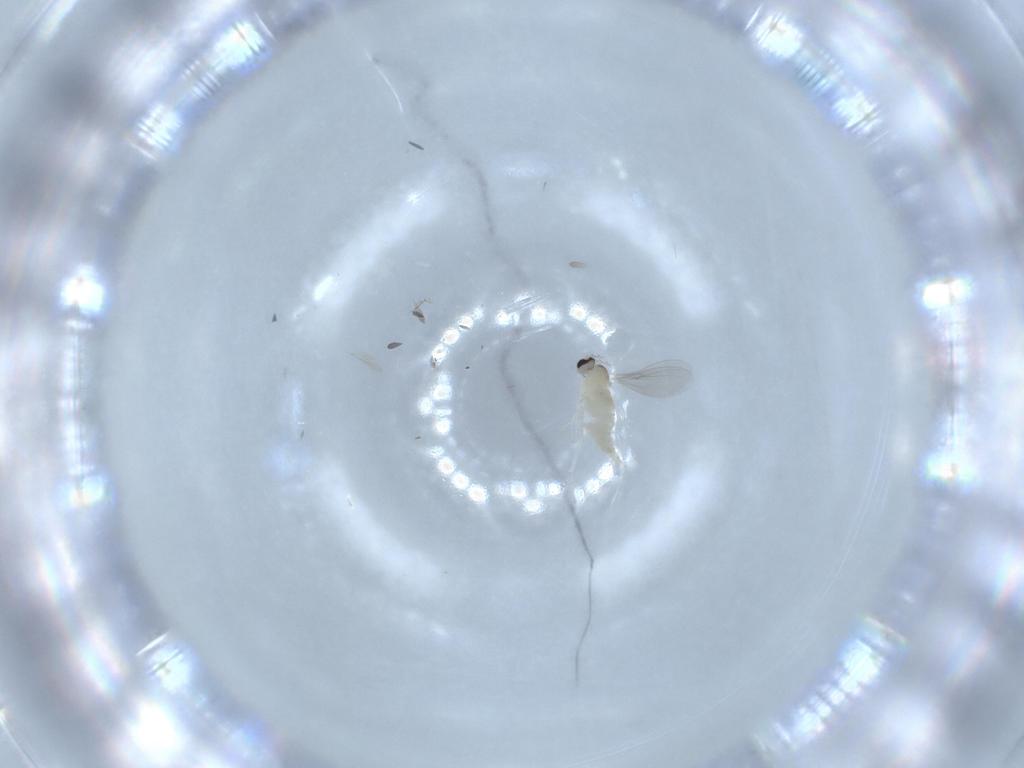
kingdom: Animalia
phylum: Arthropoda
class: Insecta
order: Diptera
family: Cecidomyiidae
